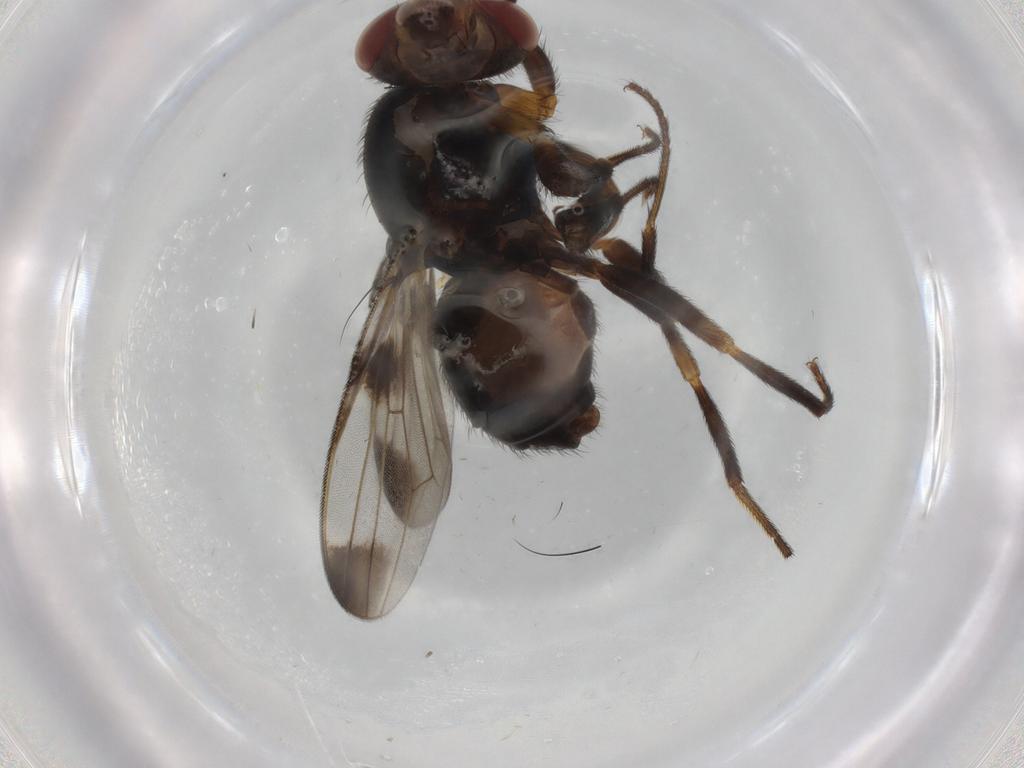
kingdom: Animalia
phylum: Arthropoda
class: Insecta
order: Diptera
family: Ulidiidae
